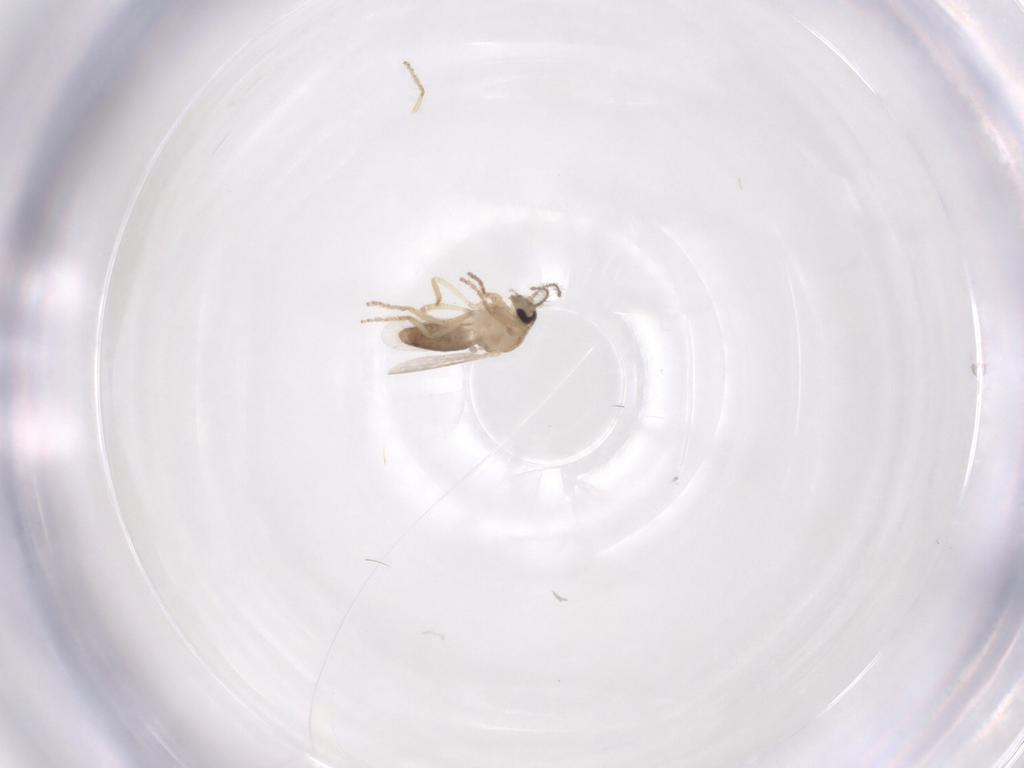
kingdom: Animalia
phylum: Arthropoda
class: Insecta
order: Diptera
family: Ceratopogonidae
